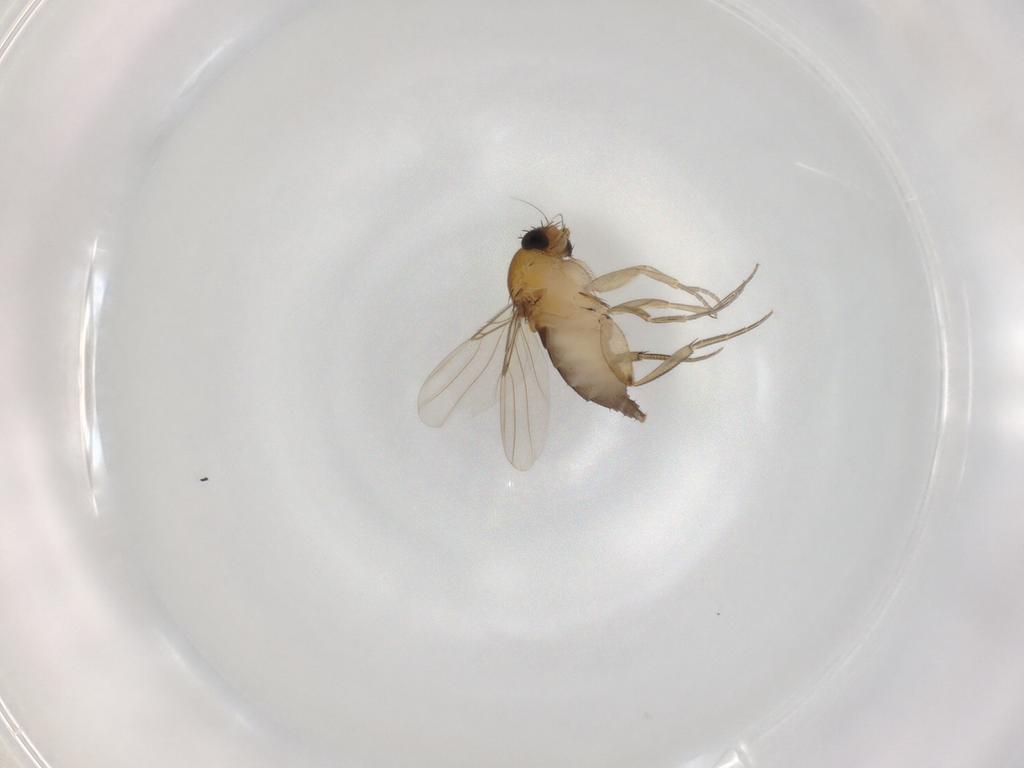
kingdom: Animalia
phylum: Arthropoda
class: Insecta
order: Diptera
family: Phoridae
